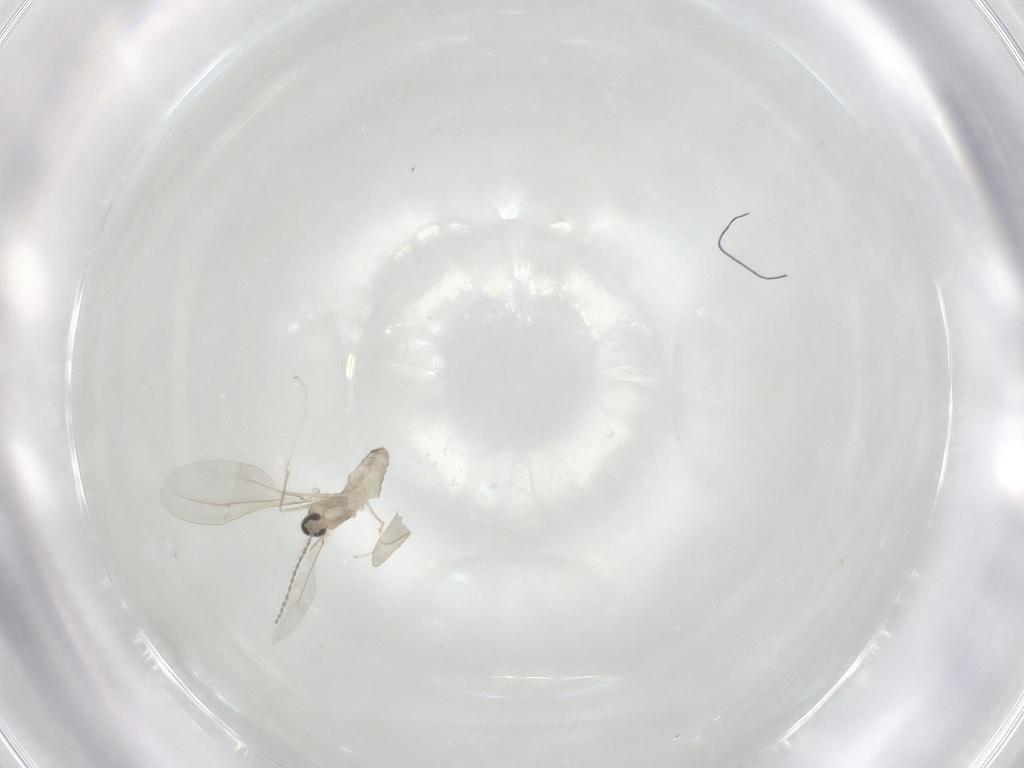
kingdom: Animalia
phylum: Arthropoda
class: Insecta
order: Diptera
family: Cecidomyiidae
